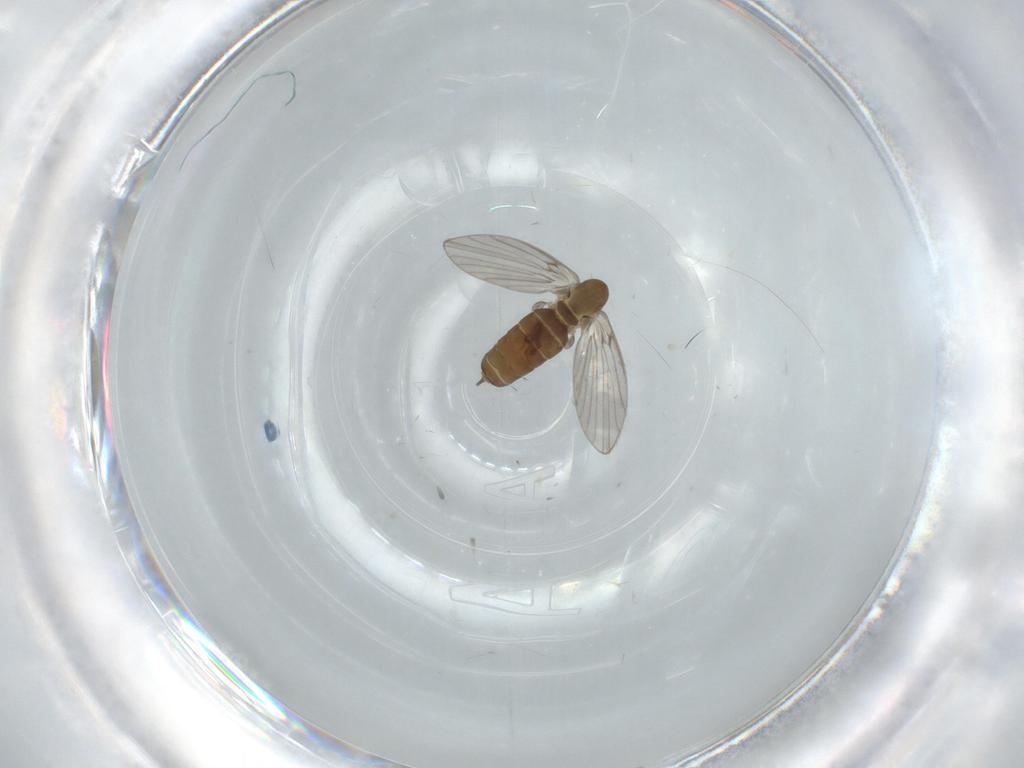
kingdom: Animalia
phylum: Arthropoda
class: Insecta
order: Diptera
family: Psychodidae
